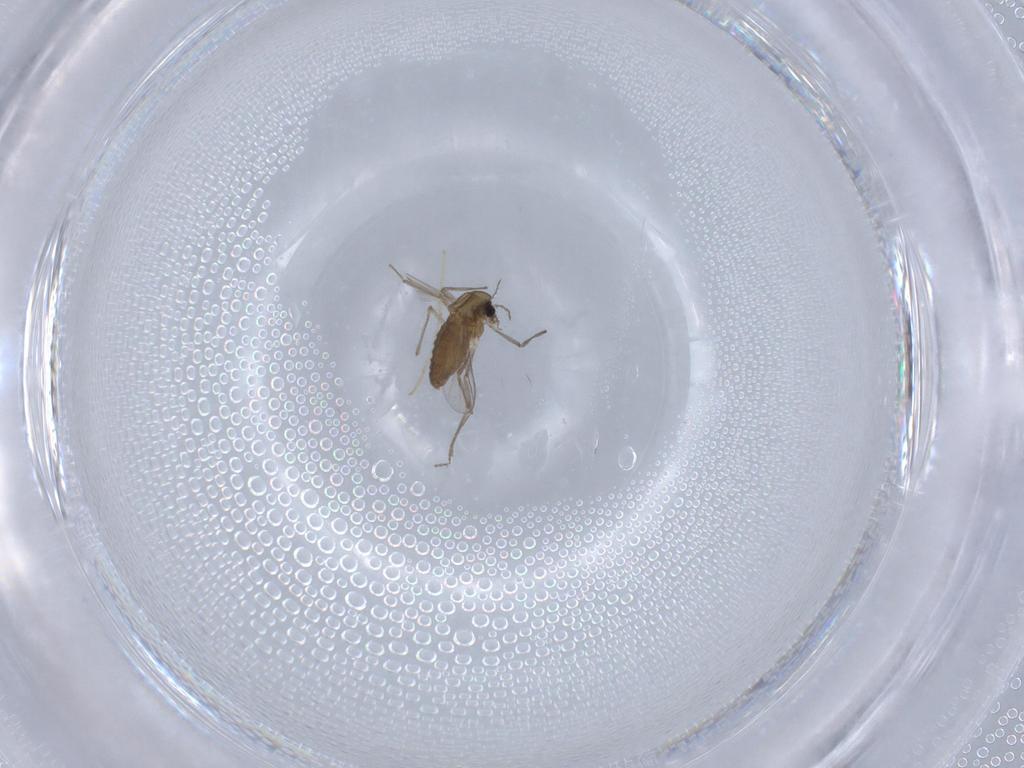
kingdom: Animalia
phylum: Arthropoda
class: Insecta
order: Diptera
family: Chironomidae
